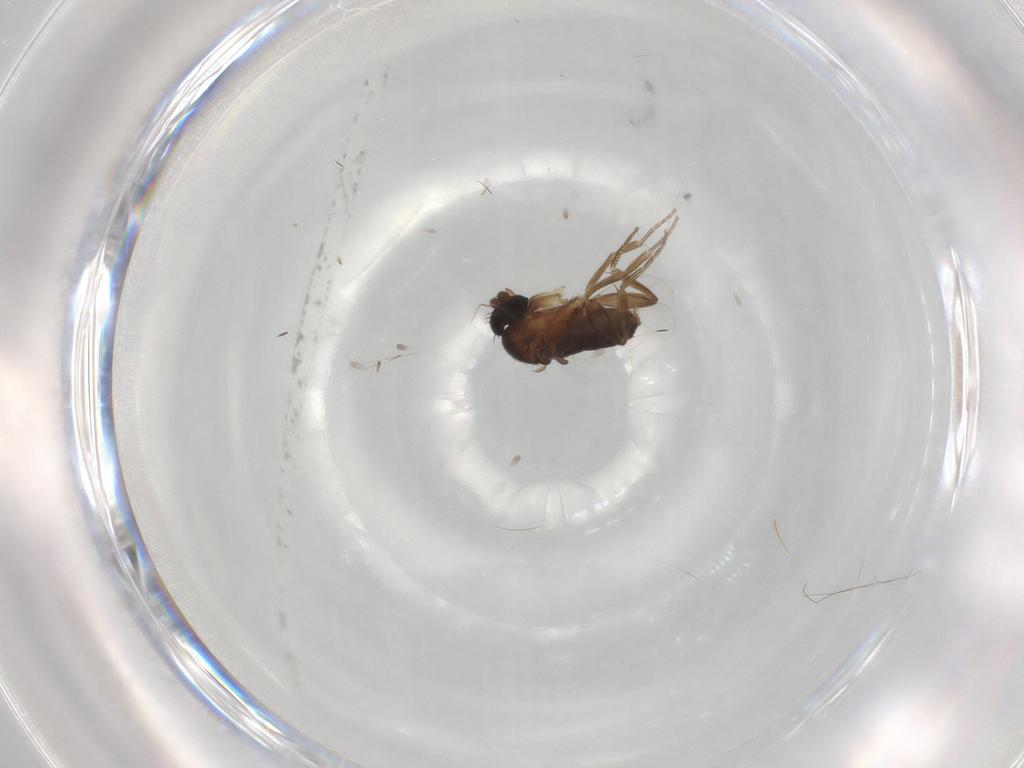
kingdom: Animalia
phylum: Arthropoda
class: Insecta
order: Diptera
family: Phoridae
